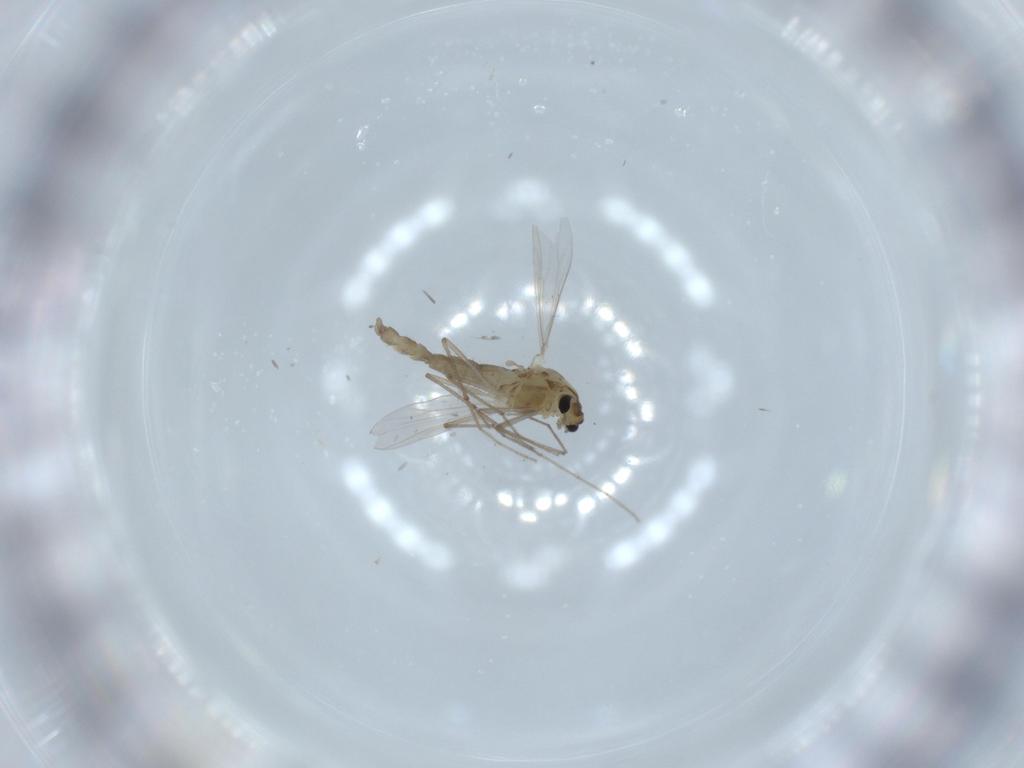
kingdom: Animalia
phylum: Arthropoda
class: Insecta
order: Diptera
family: Chironomidae
